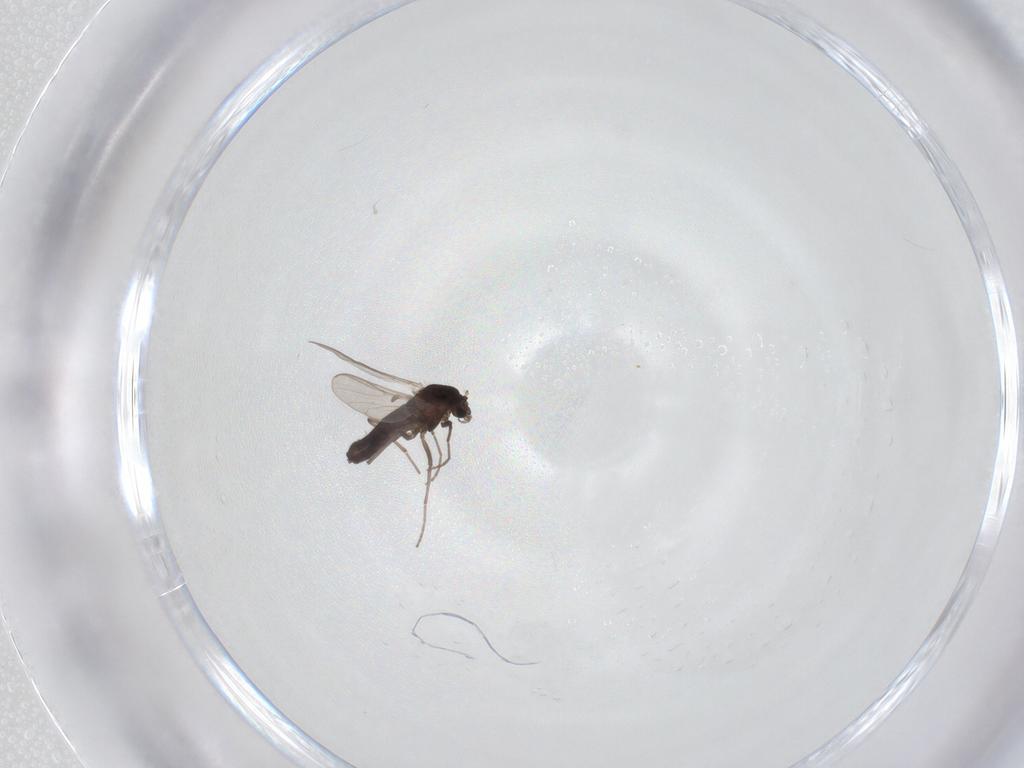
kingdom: Animalia
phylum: Arthropoda
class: Insecta
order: Diptera
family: Chironomidae
